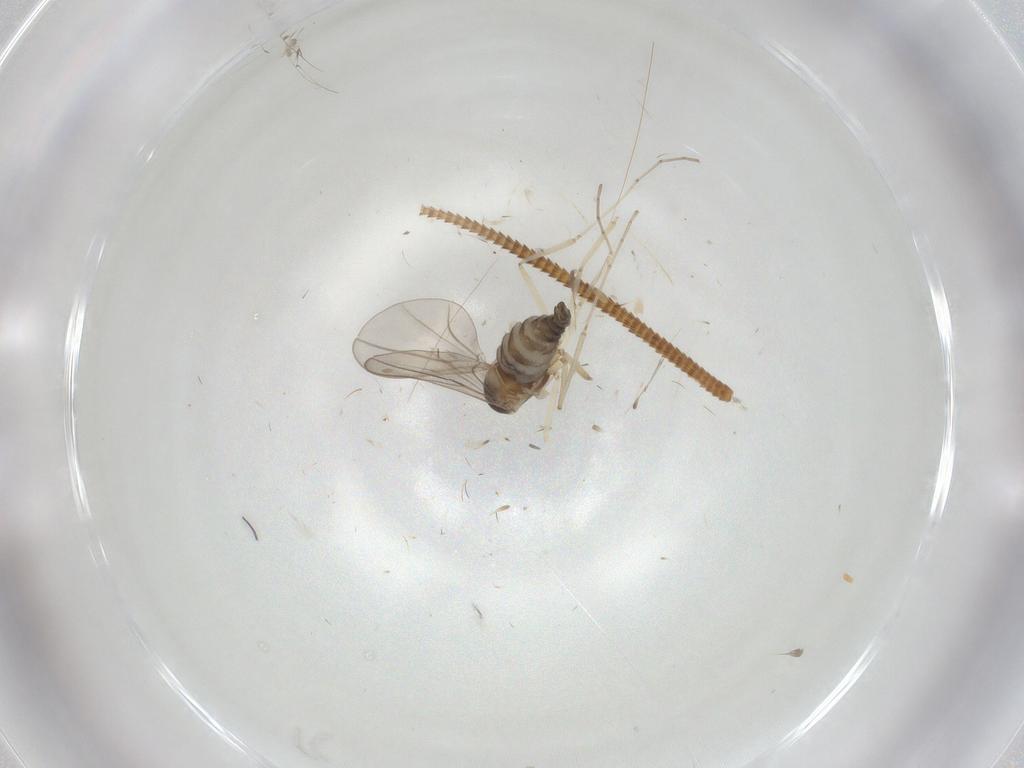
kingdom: Animalia
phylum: Arthropoda
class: Insecta
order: Diptera
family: Cecidomyiidae
